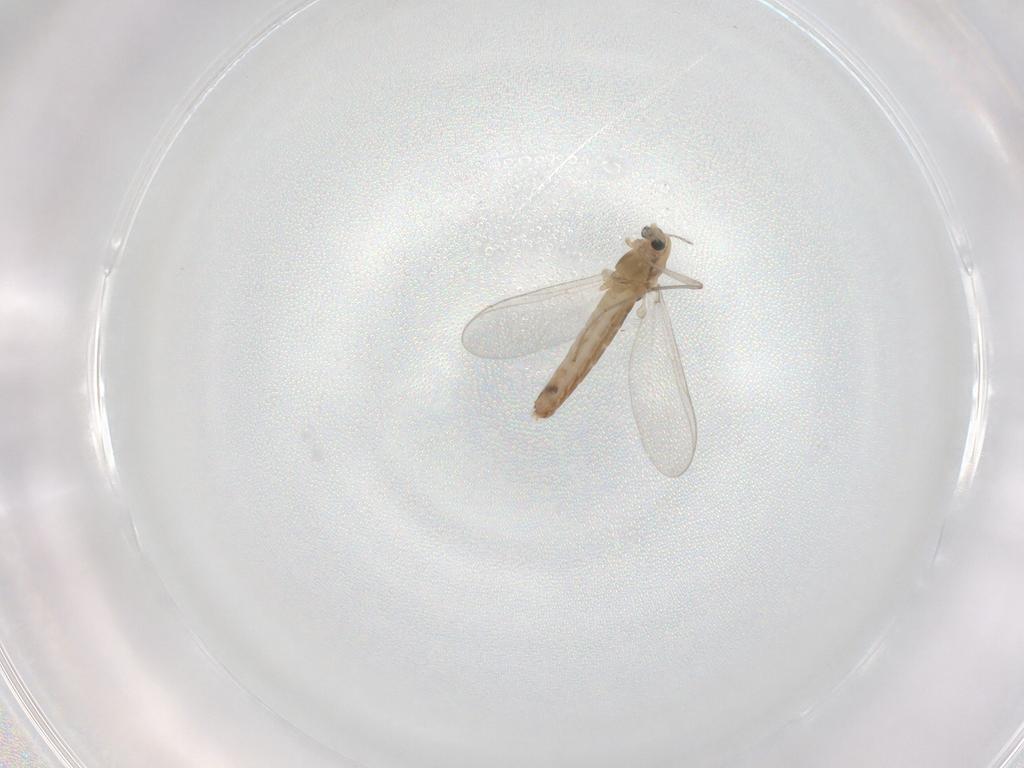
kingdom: Animalia
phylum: Arthropoda
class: Insecta
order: Diptera
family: Chironomidae
